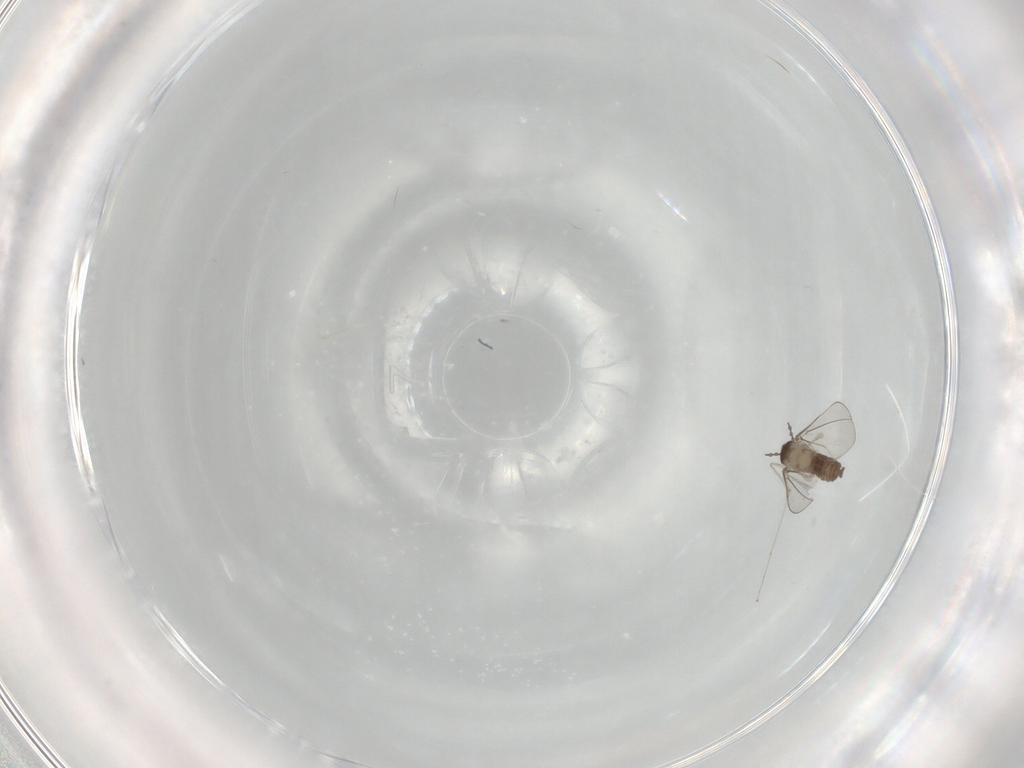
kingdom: Animalia
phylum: Arthropoda
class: Insecta
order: Diptera
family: Cecidomyiidae
